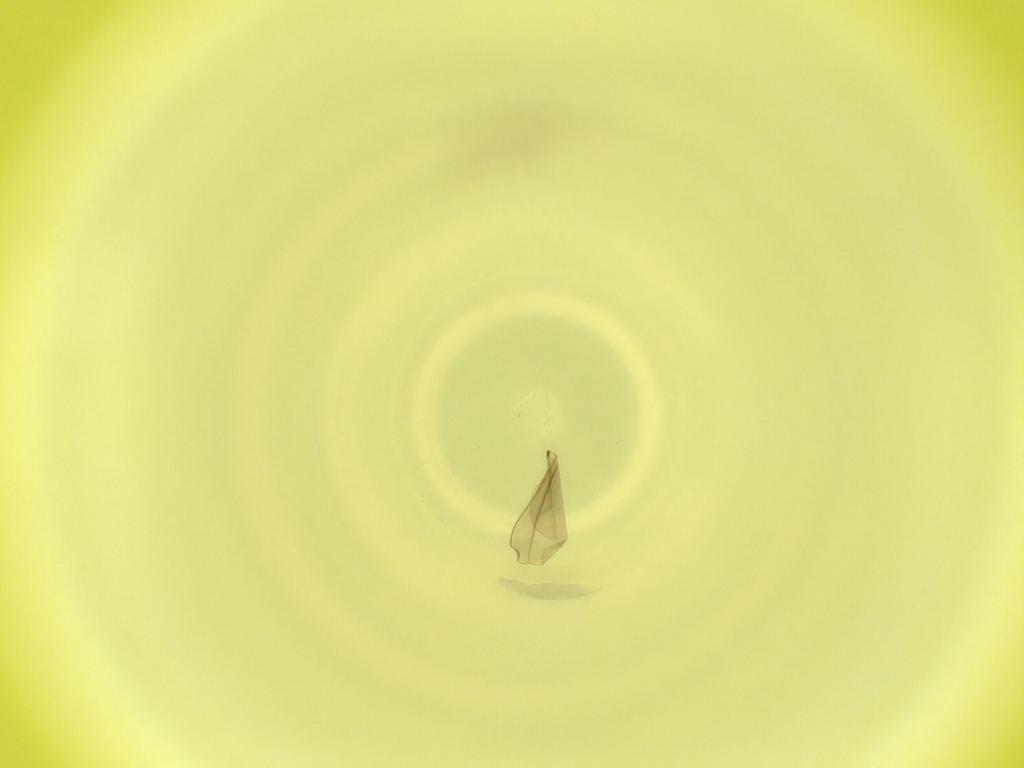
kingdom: Animalia
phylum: Arthropoda
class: Insecta
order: Diptera
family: Cecidomyiidae
